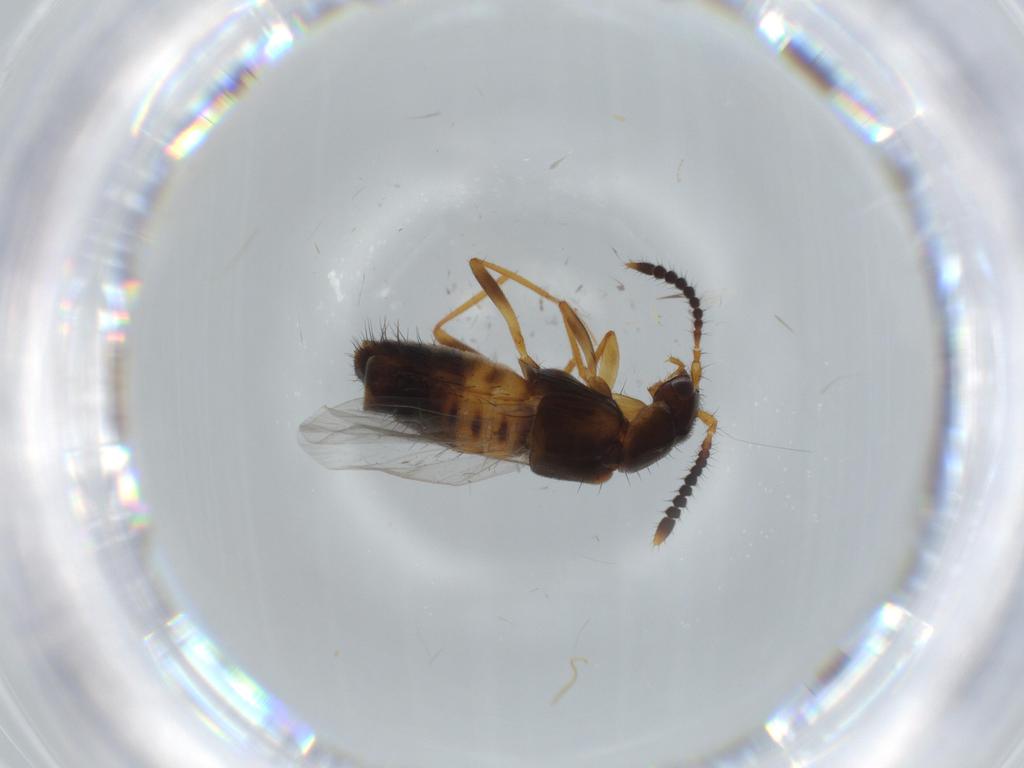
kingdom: Animalia
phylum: Arthropoda
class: Insecta
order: Coleoptera
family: Staphylinidae
